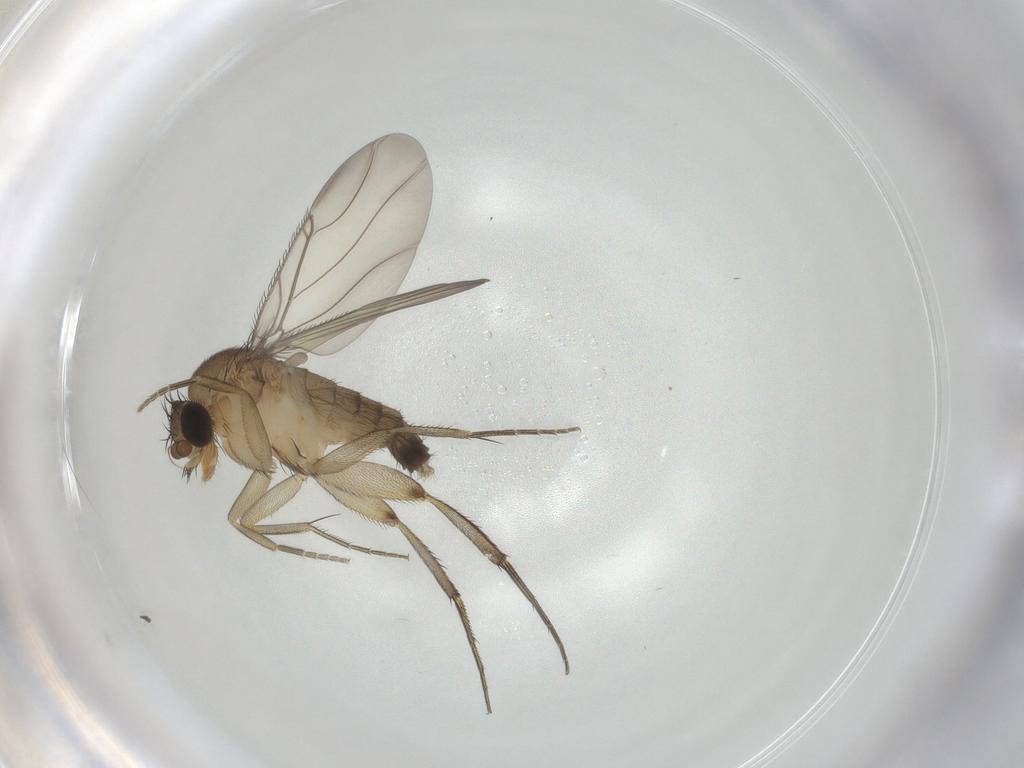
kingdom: Animalia
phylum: Arthropoda
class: Insecta
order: Diptera
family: Phoridae
